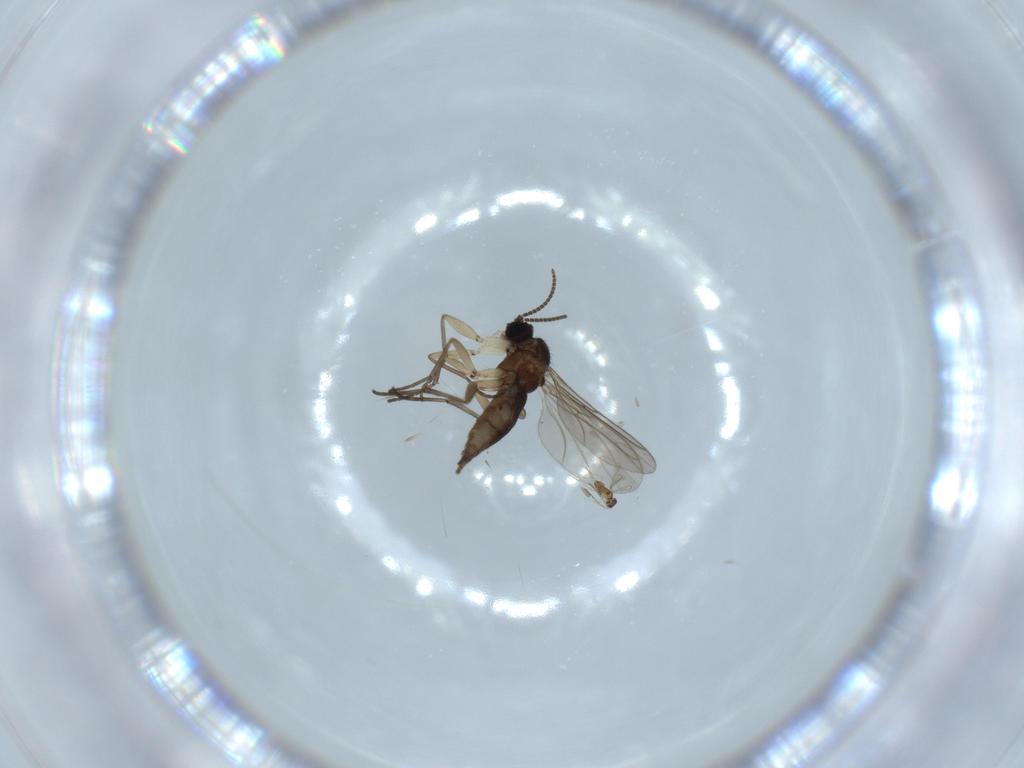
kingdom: Animalia
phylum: Arthropoda
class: Insecta
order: Diptera
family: Sciaridae
